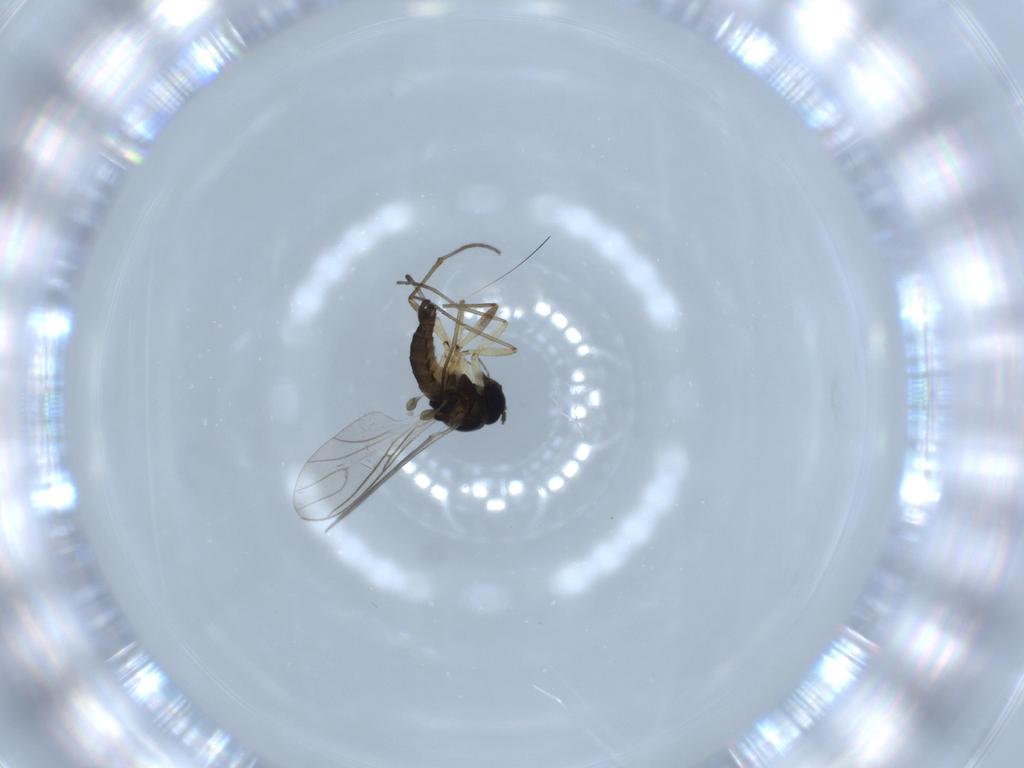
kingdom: Animalia
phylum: Arthropoda
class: Insecta
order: Diptera
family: Sciaridae
